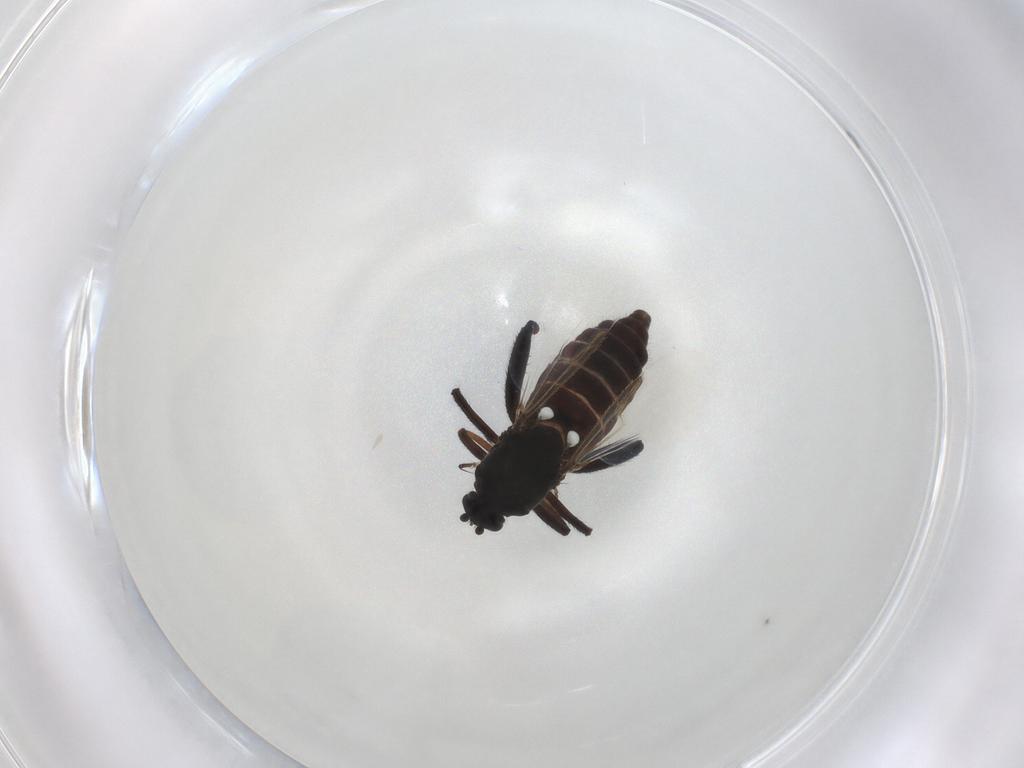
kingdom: Animalia
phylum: Arthropoda
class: Insecta
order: Diptera
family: Ceratopogonidae
